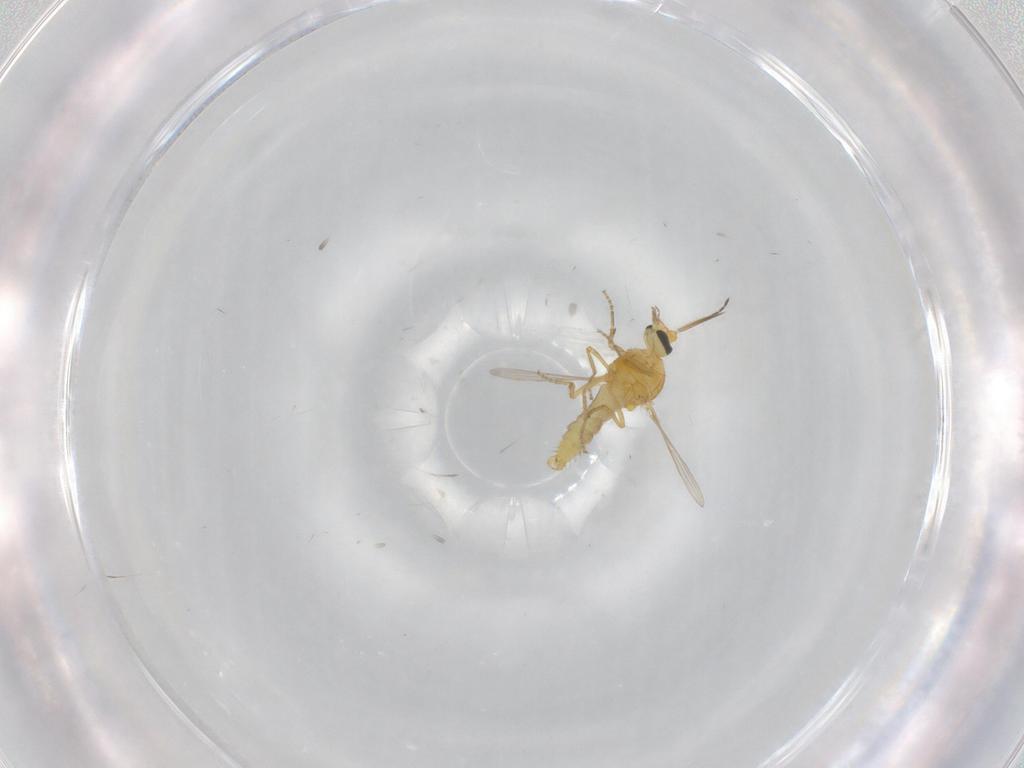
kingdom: Animalia
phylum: Arthropoda
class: Insecta
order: Diptera
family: Ceratopogonidae
